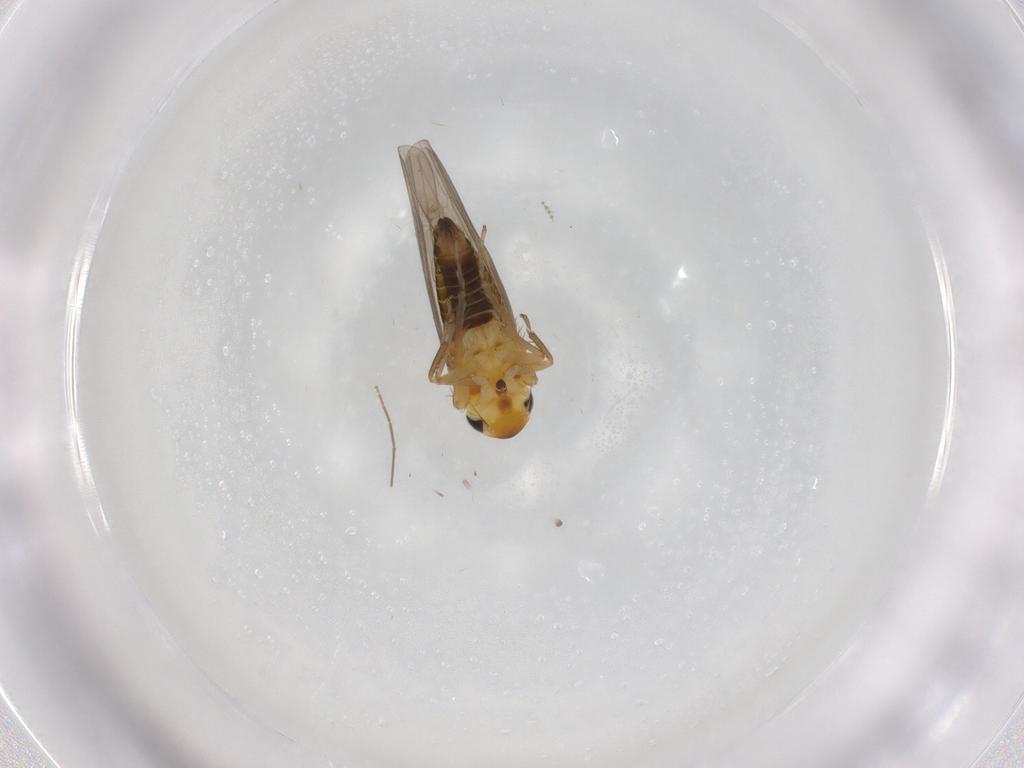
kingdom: Animalia
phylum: Arthropoda
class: Insecta
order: Hemiptera
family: Cicadellidae
